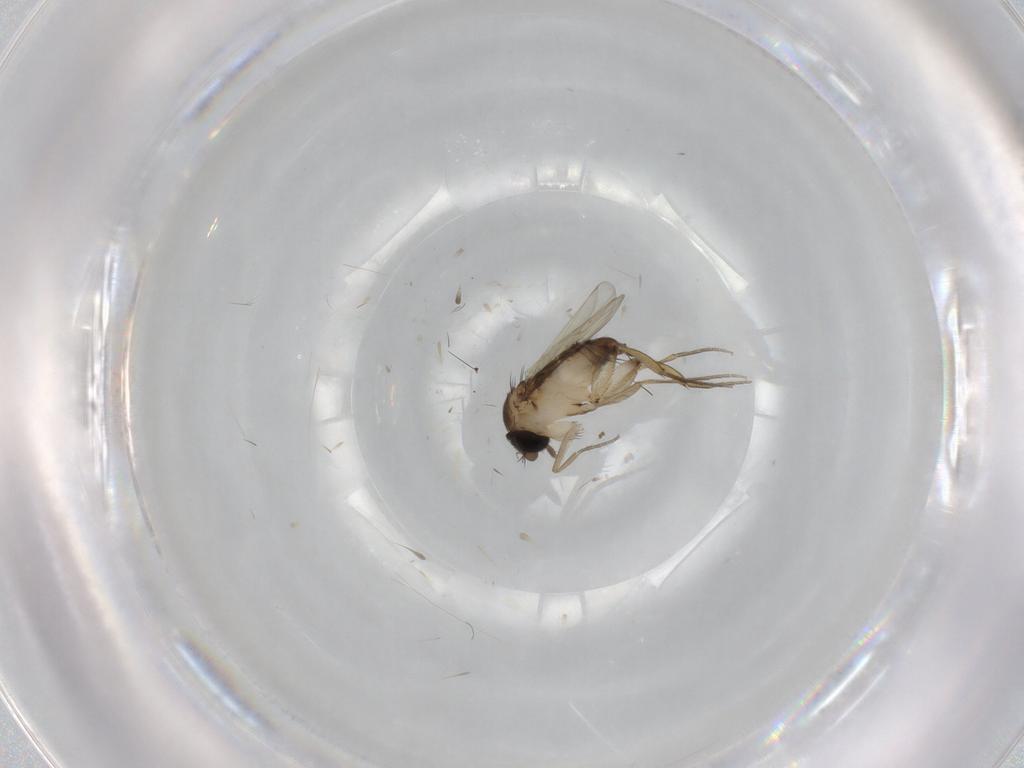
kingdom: Animalia
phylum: Arthropoda
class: Insecta
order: Diptera
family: Phoridae
